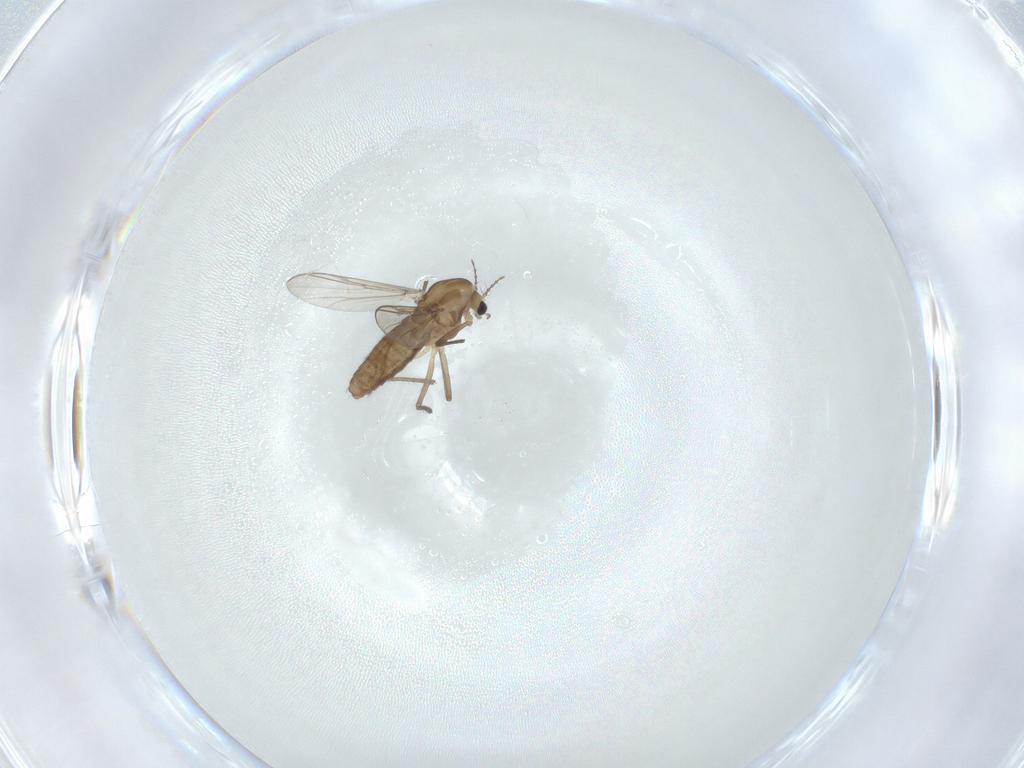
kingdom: Animalia
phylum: Arthropoda
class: Insecta
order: Diptera
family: Chironomidae
